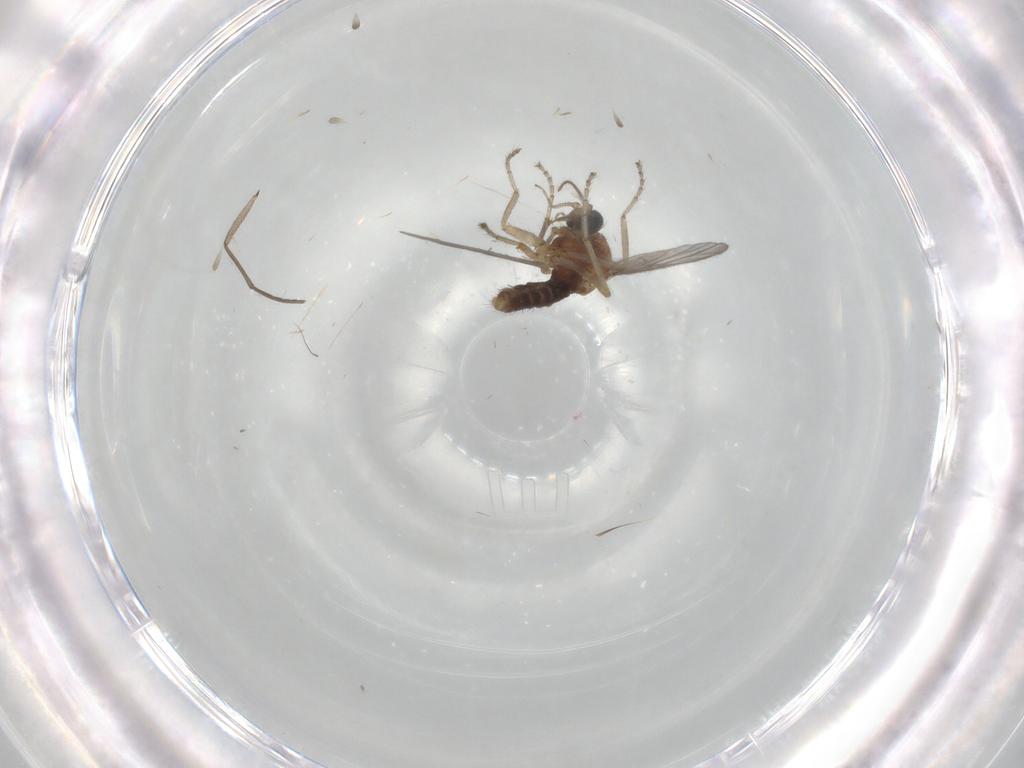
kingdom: Animalia
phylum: Arthropoda
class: Insecta
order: Diptera
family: Ceratopogonidae
